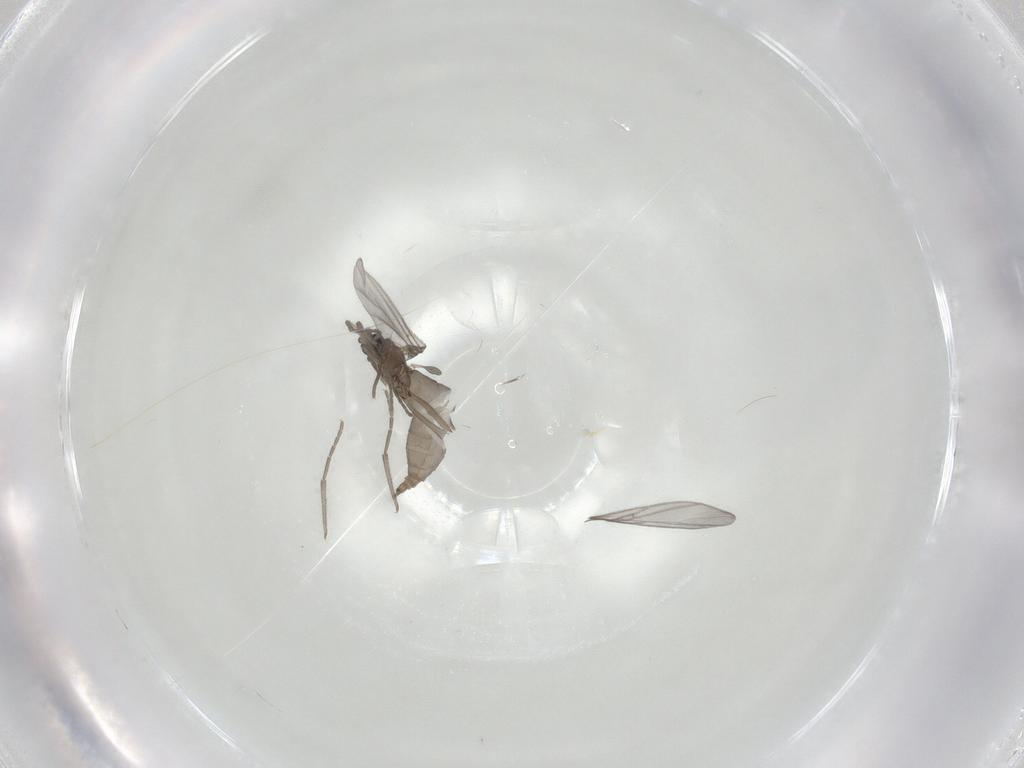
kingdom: Animalia
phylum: Arthropoda
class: Insecta
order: Diptera
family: Sciaridae
